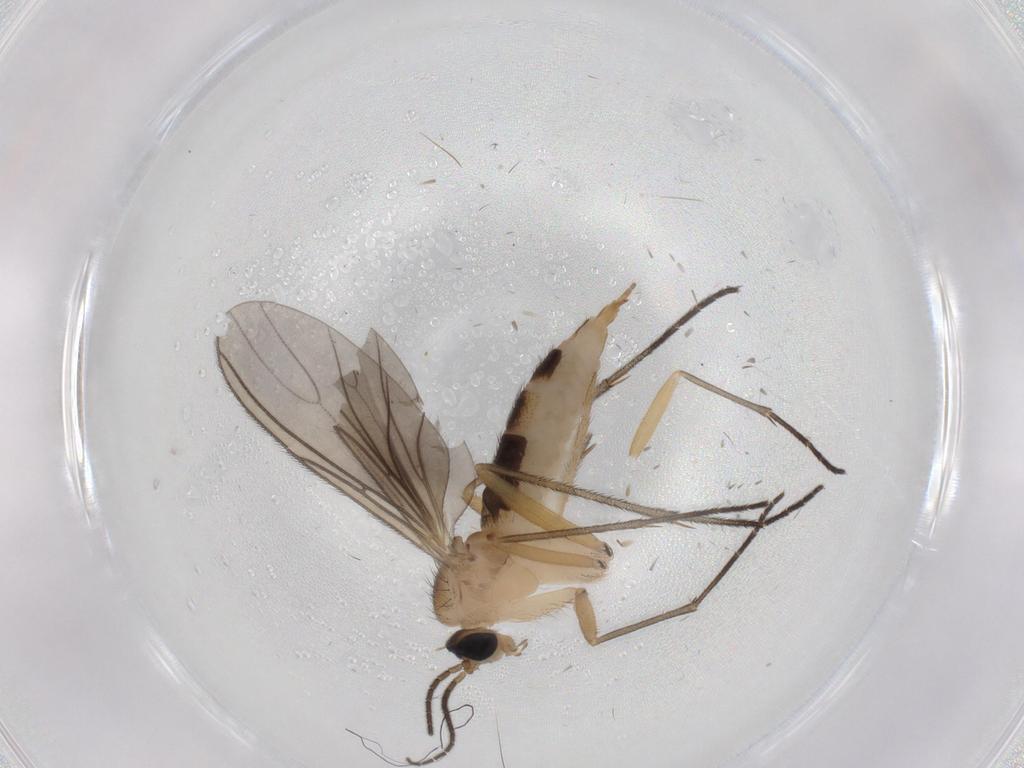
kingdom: Animalia
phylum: Arthropoda
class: Insecta
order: Diptera
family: Sciaridae
